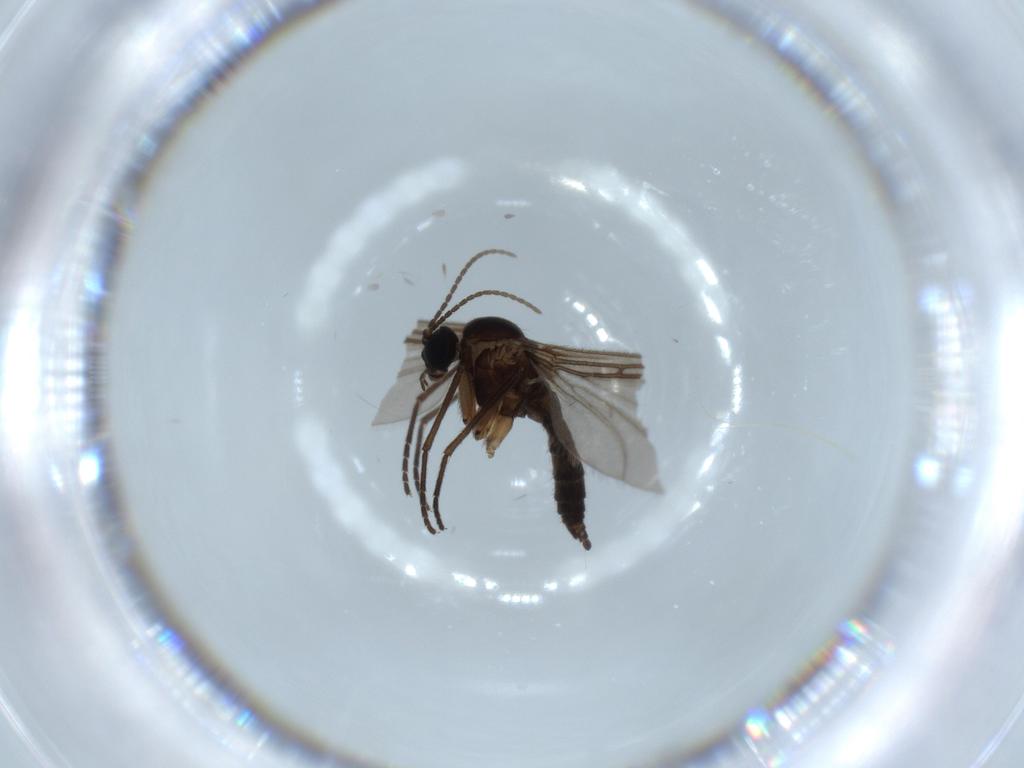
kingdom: Animalia
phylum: Arthropoda
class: Insecta
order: Diptera
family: Sciaridae
